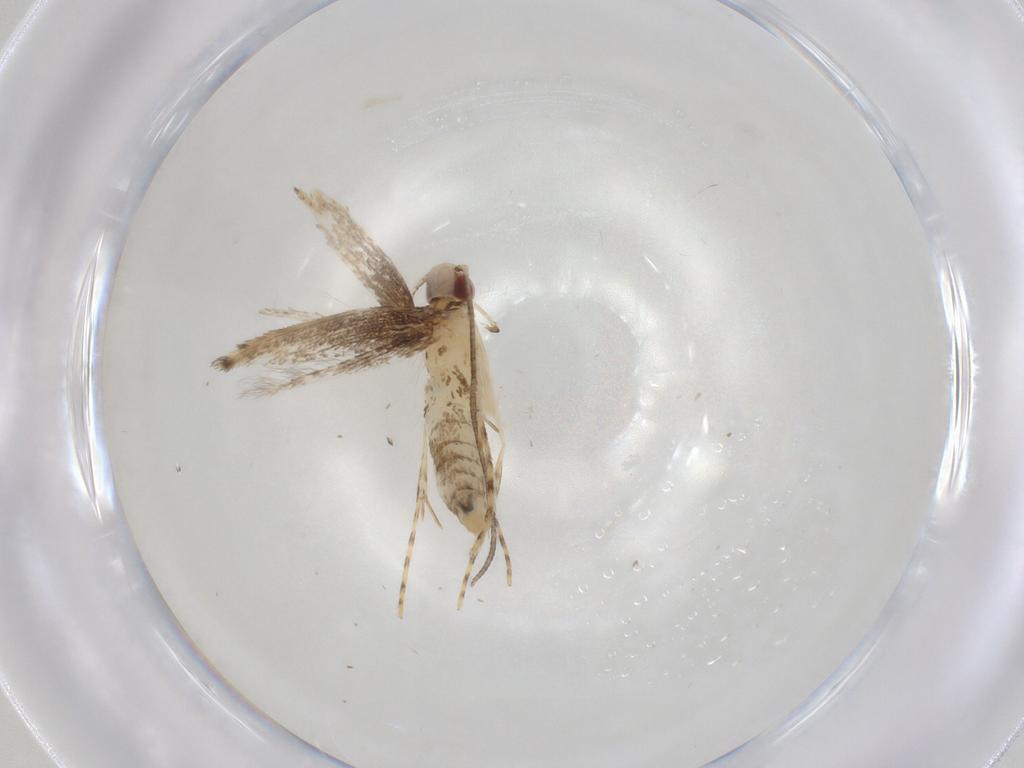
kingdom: Animalia
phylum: Arthropoda
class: Insecta
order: Lepidoptera
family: Gracillariidae
